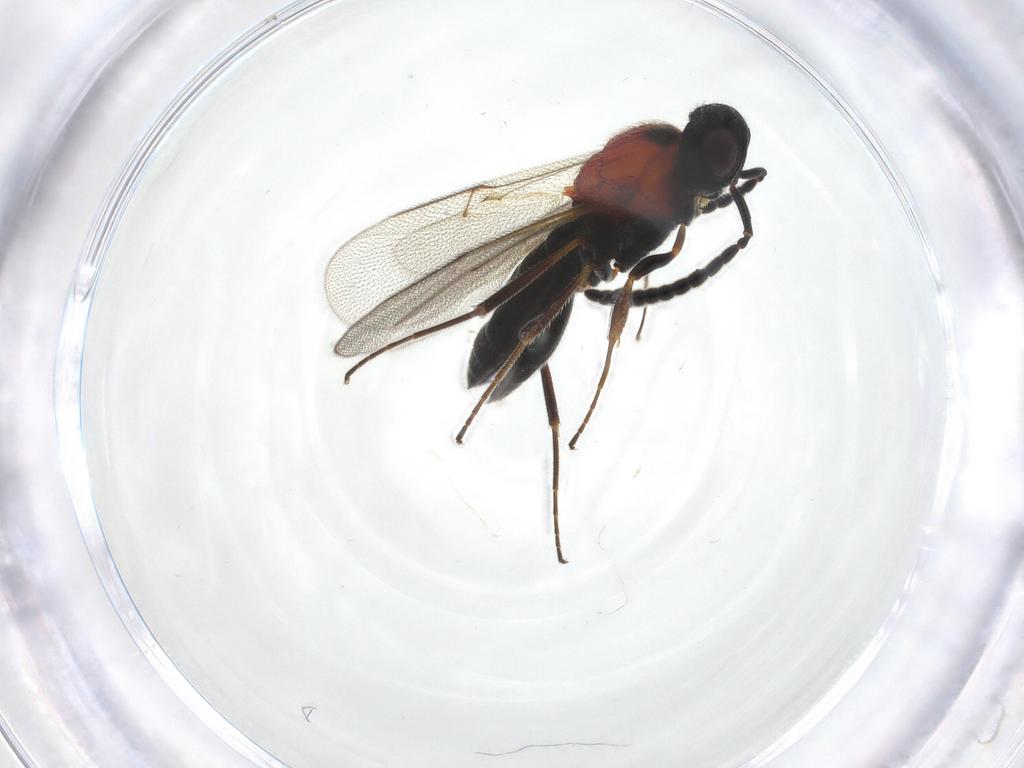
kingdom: Animalia
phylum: Arthropoda
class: Insecta
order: Hymenoptera
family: Scelionidae
